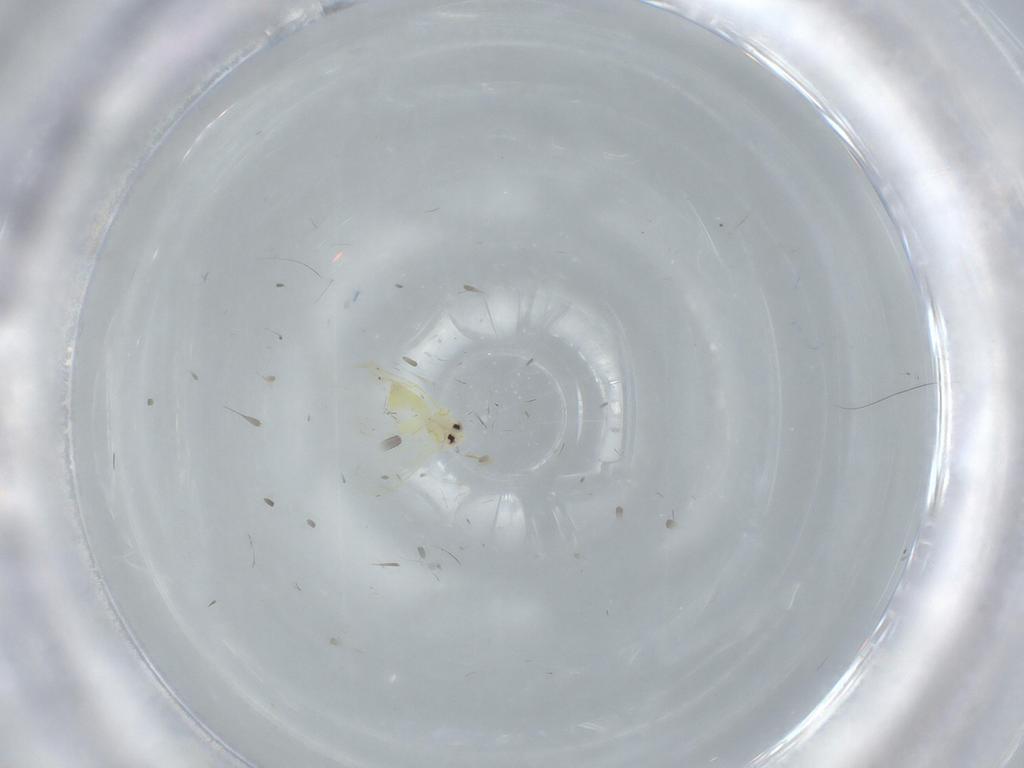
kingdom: Animalia
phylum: Arthropoda
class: Insecta
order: Hemiptera
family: Aleyrodidae
